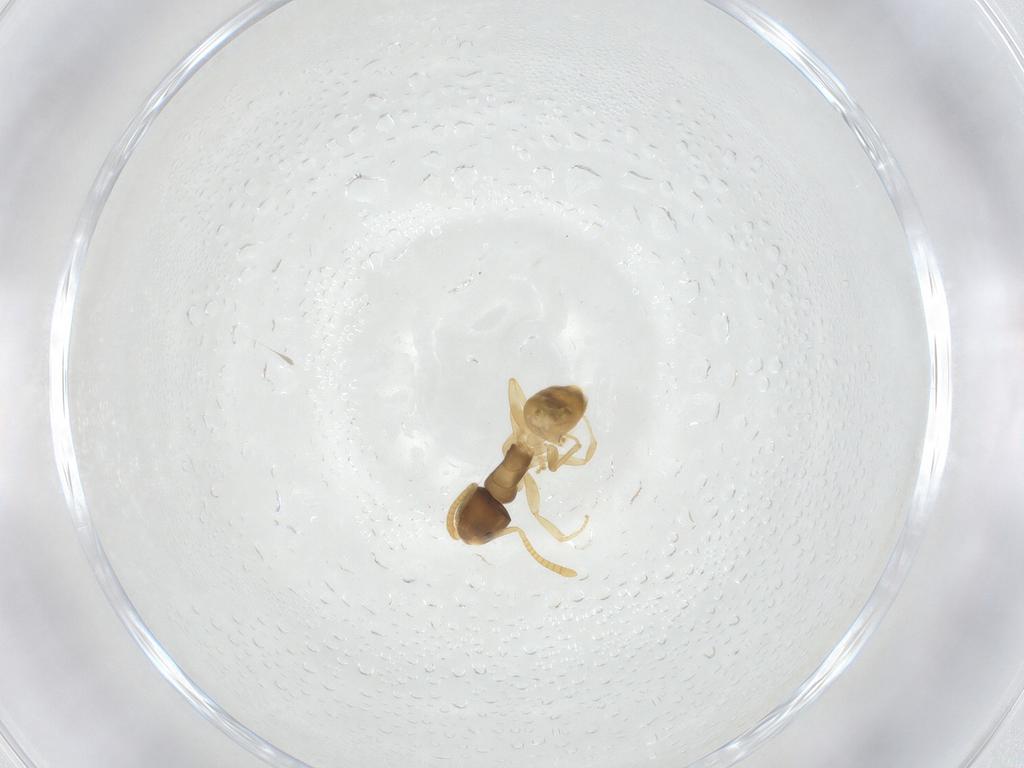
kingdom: Animalia
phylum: Arthropoda
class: Insecta
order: Hymenoptera
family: Formicidae
